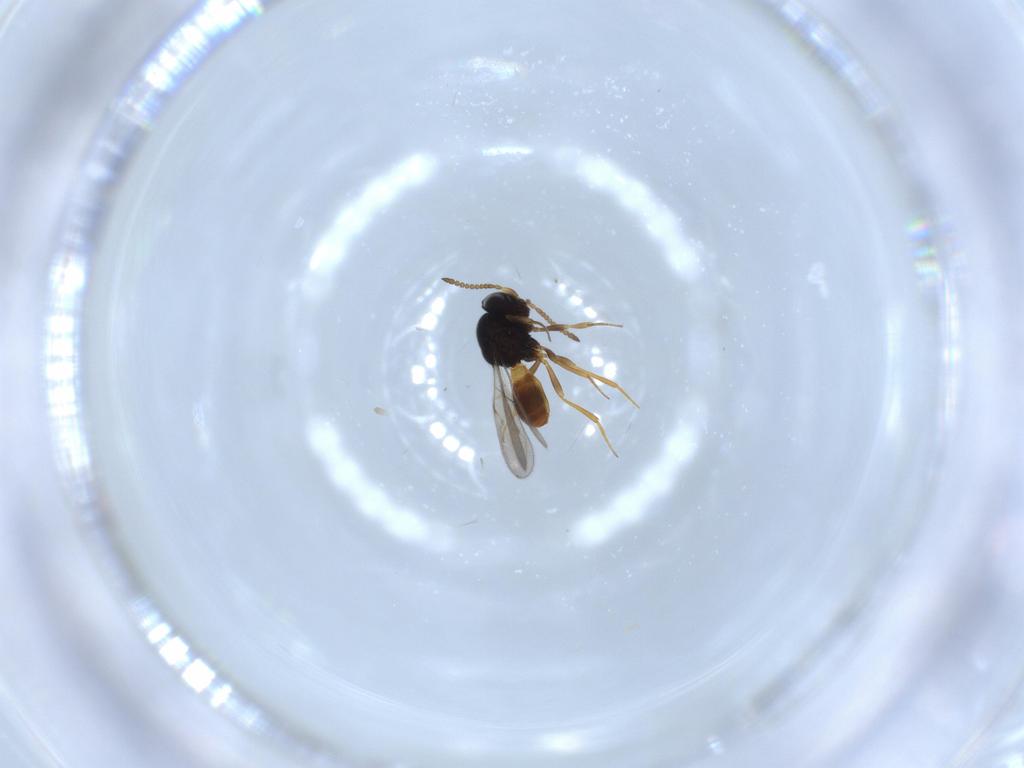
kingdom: Animalia
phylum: Arthropoda
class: Insecta
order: Hymenoptera
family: Scelionidae
